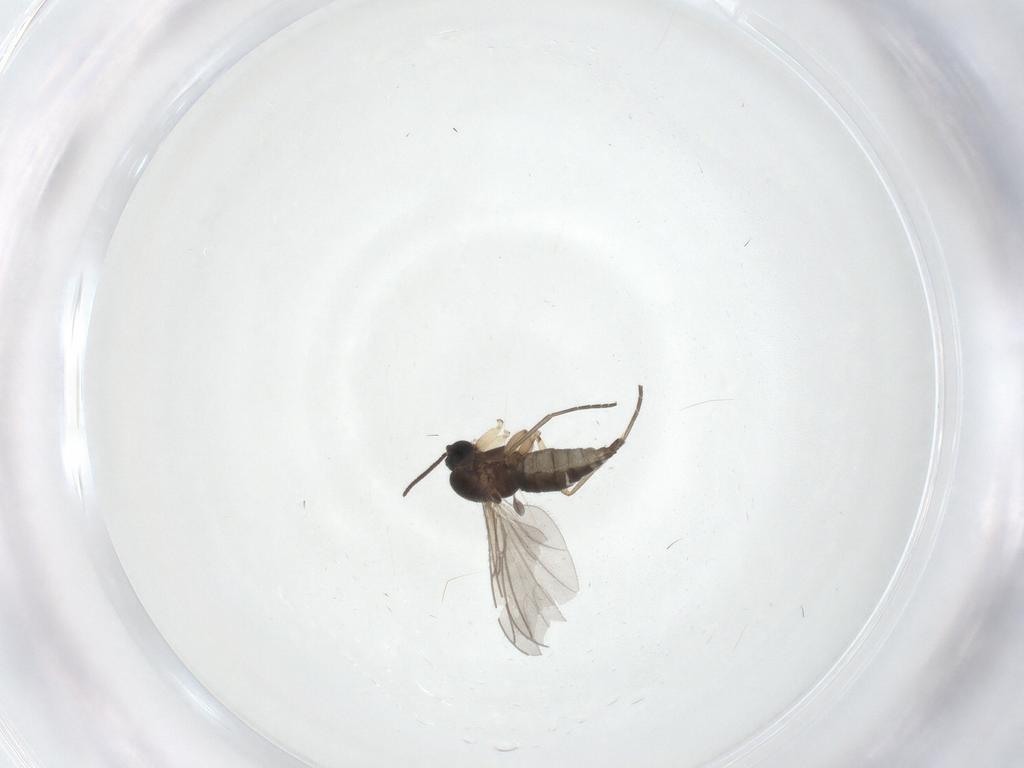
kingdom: Animalia
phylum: Arthropoda
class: Insecta
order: Diptera
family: Sciaridae
